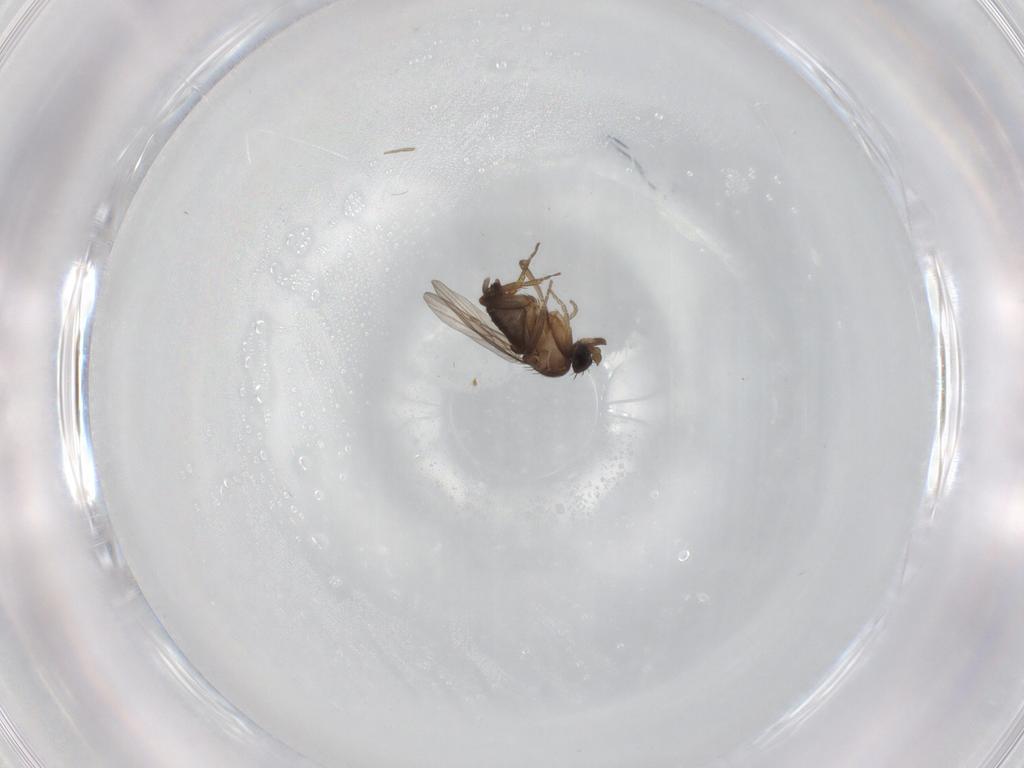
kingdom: Animalia
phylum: Arthropoda
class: Insecta
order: Diptera
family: Phoridae
